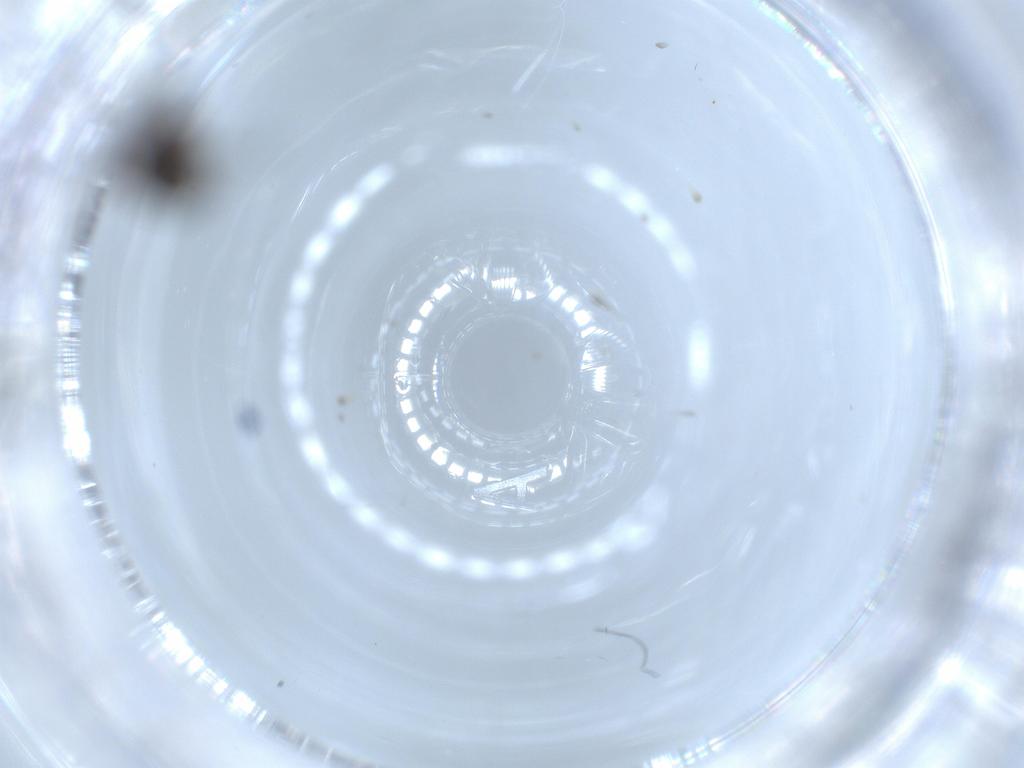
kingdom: Animalia
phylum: Arthropoda
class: Insecta
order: Diptera
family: Sciaridae
